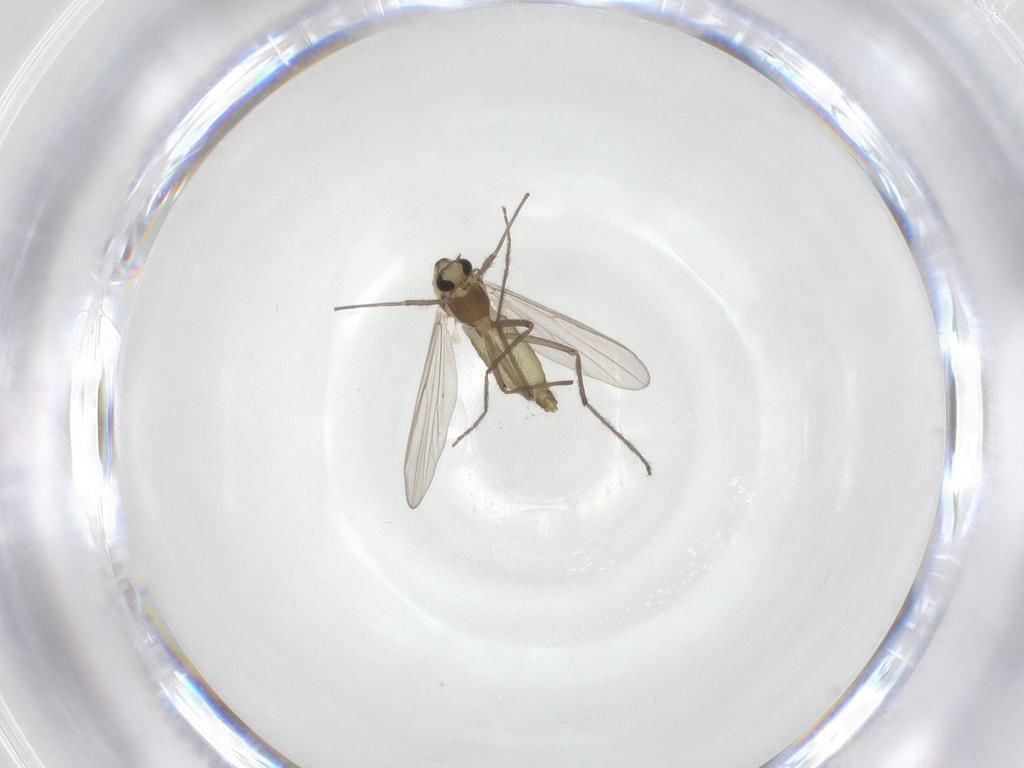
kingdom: Animalia
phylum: Arthropoda
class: Insecta
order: Diptera
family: Chironomidae
